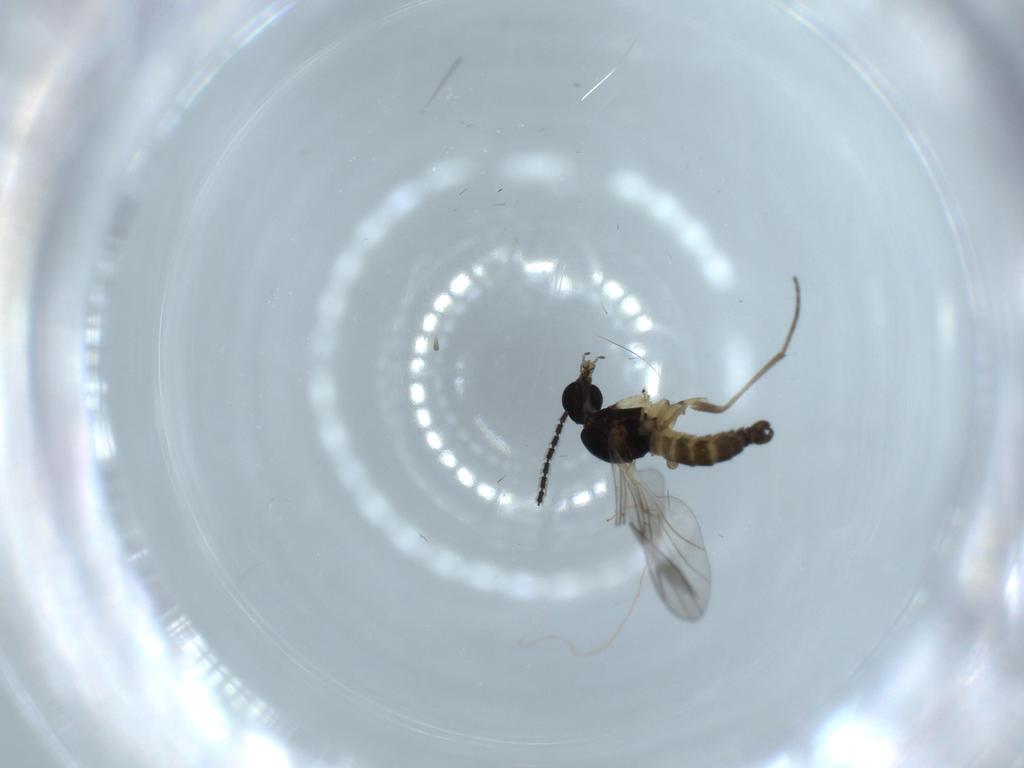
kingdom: Animalia
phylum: Arthropoda
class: Insecta
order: Diptera
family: Sciaridae
